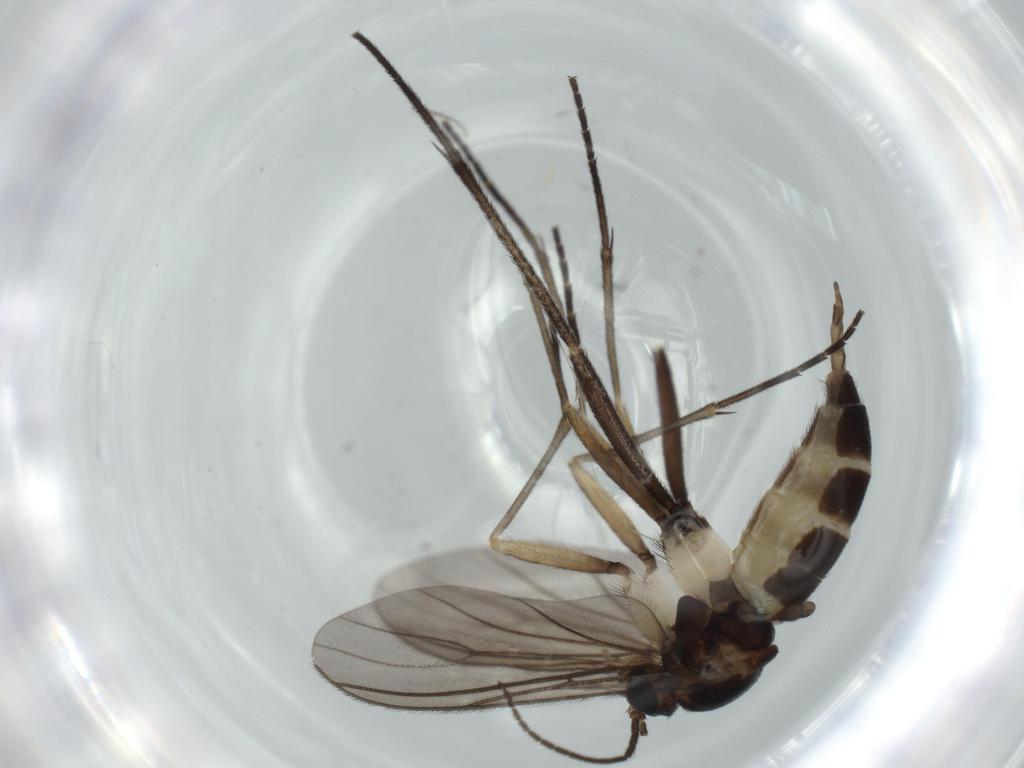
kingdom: Animalia
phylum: Arthropoda
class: Insecta
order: Diptera
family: Sciaridae
